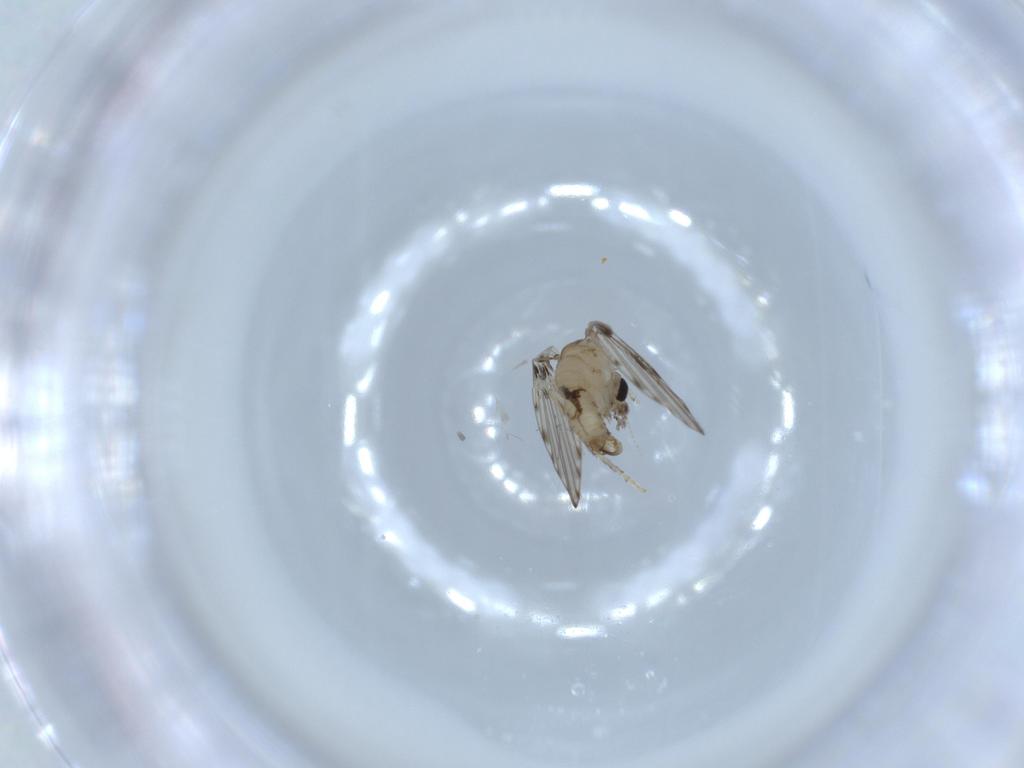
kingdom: Animalia
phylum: Arthropoda
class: Insecta
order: Diptera
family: Psychodidae
